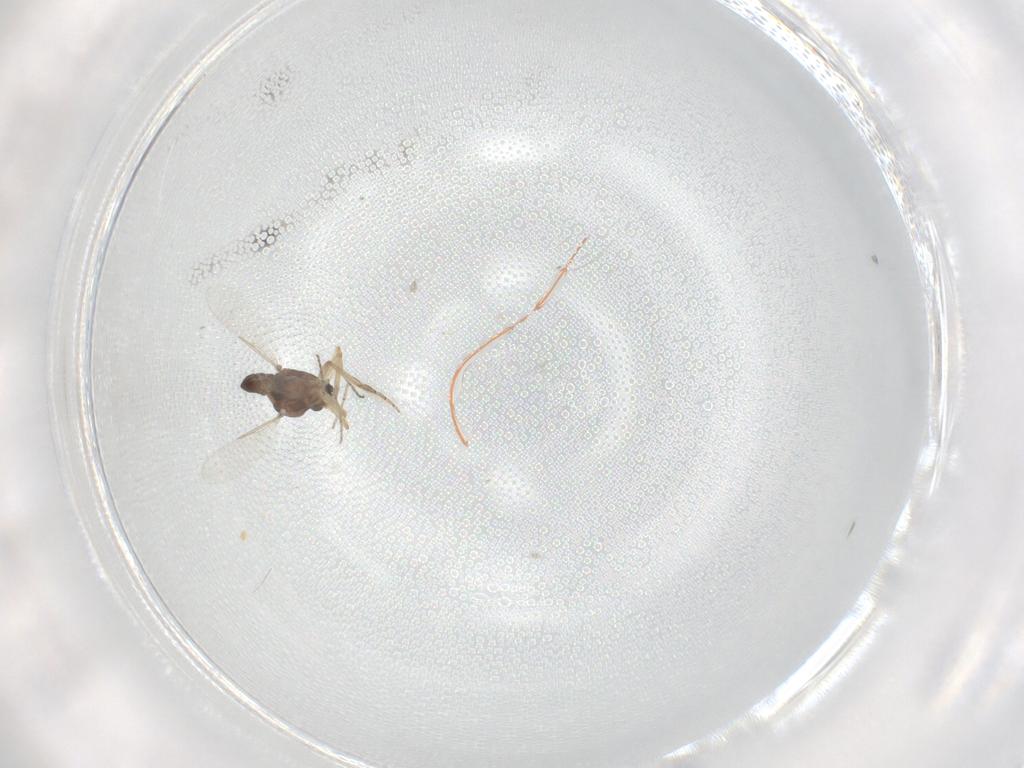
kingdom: Animalia
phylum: Arthropoda
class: Insecta
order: Diptera
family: Ceratopogonidae
